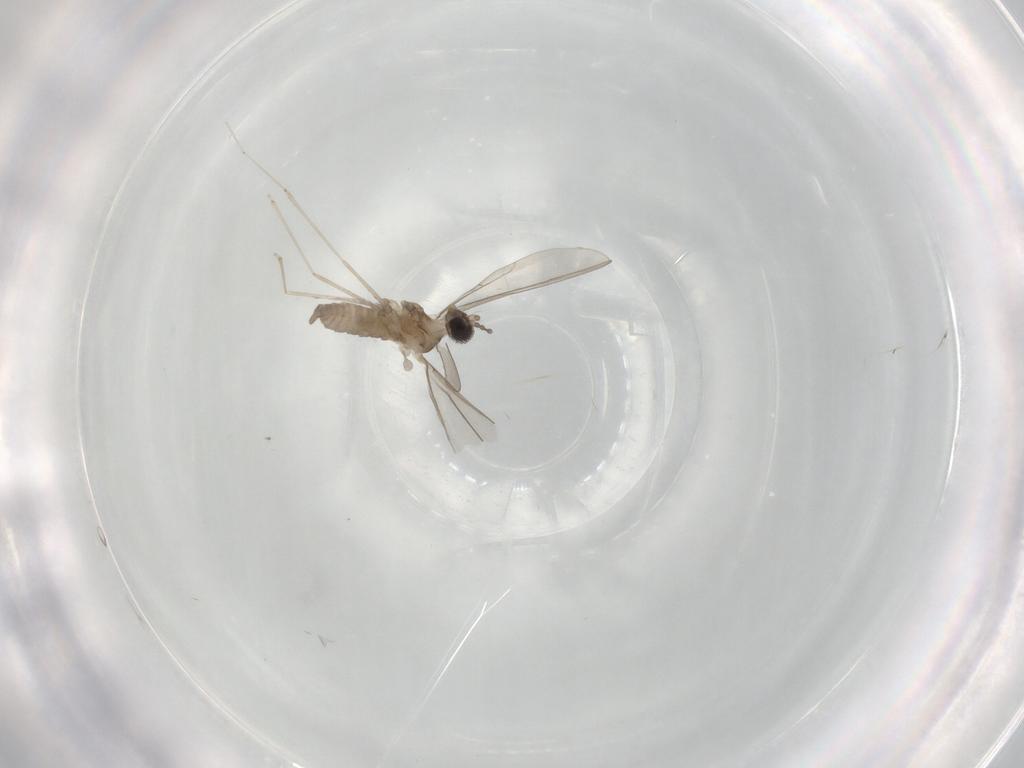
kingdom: Animalia
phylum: Arthropoda
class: Insecta
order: Diptera
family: Cecidomyiidae
